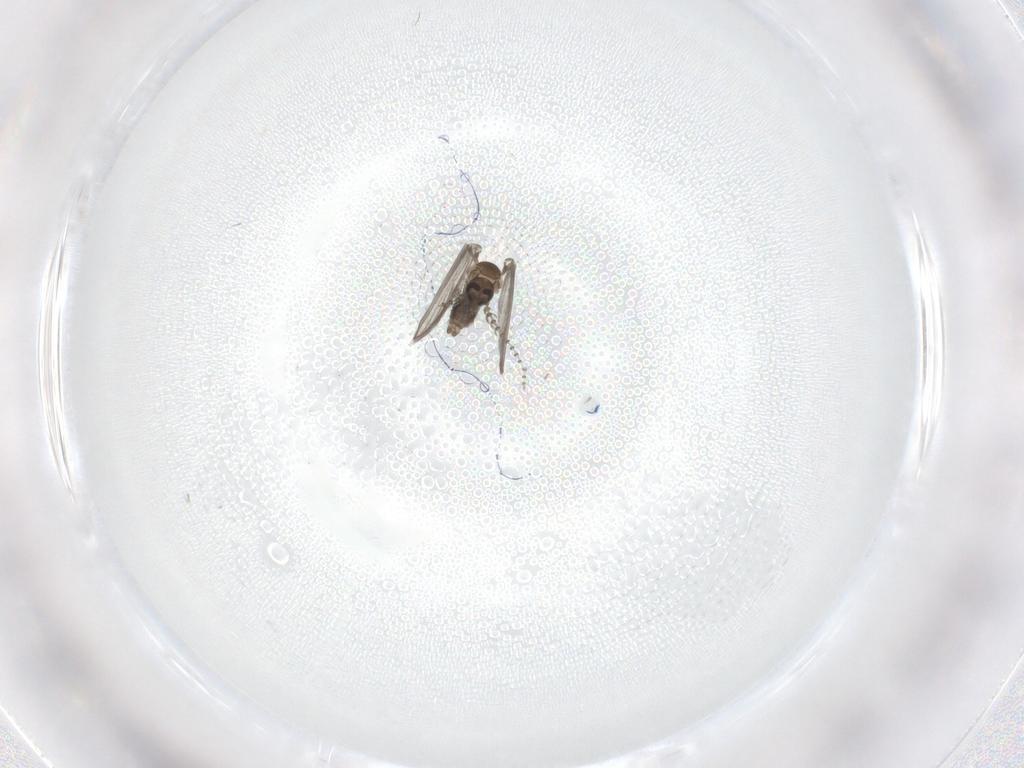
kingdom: Animalia
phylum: Arthropoda
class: Insecta
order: Diptera
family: Psychodidae
